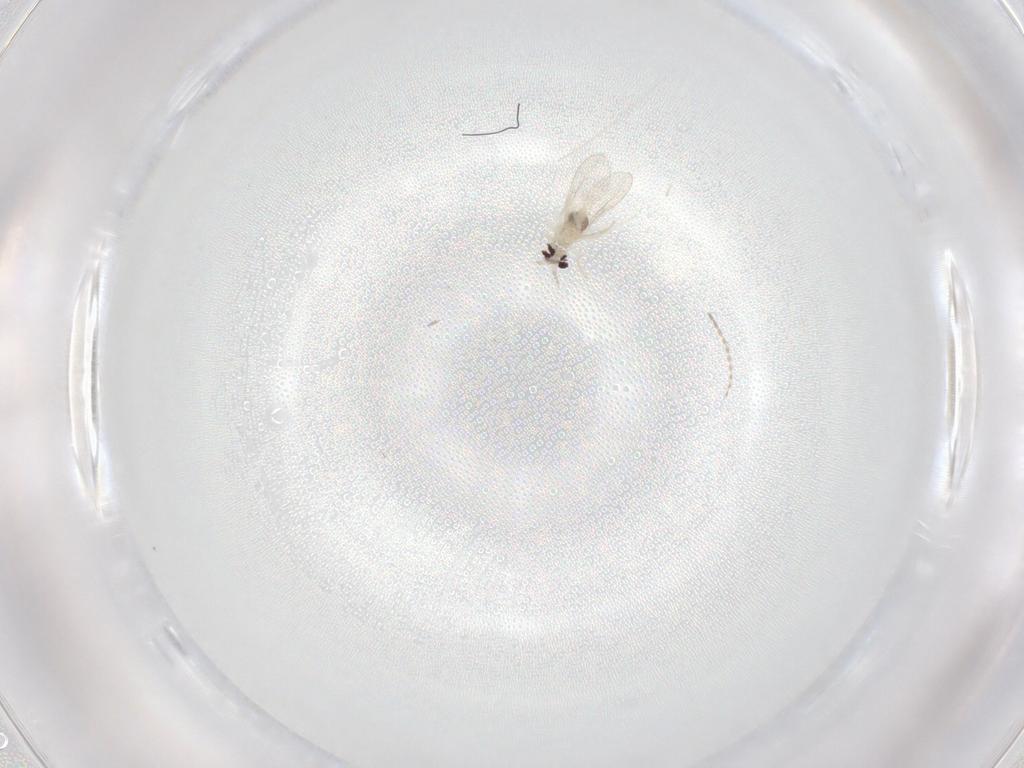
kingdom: Animalia
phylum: Arthropoda
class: Insecta
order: Diptera
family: Cecidomyiidae
